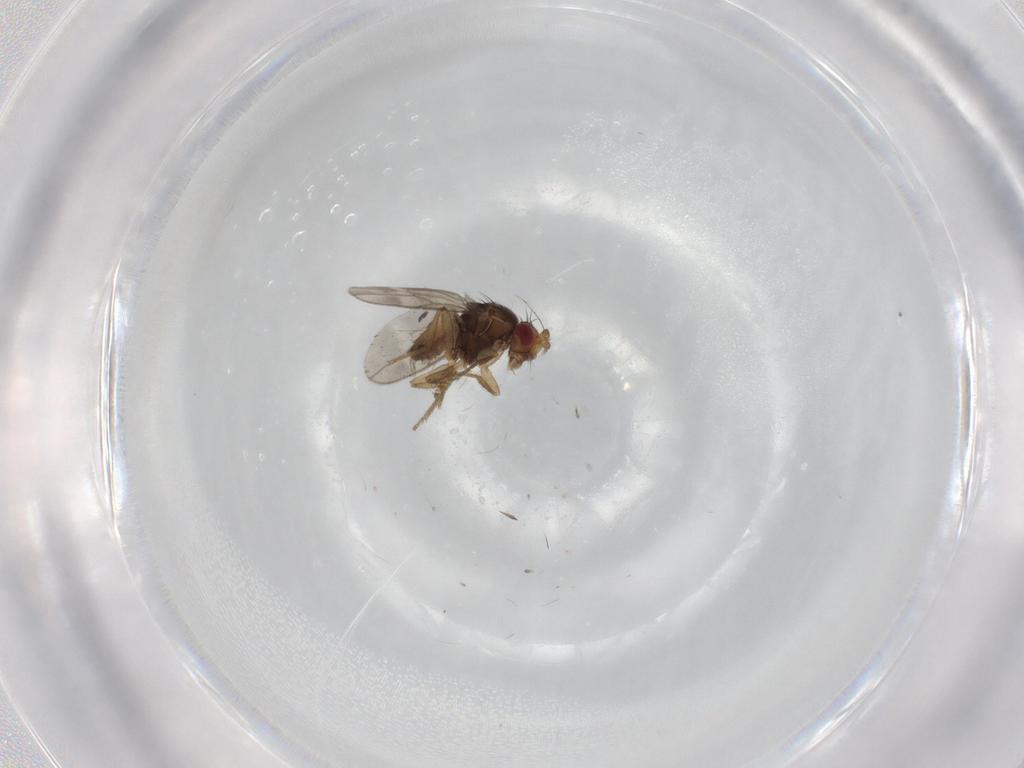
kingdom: Animalia
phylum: Arthropoda
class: Insecta
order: Diptera
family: Sphaeroceridae
